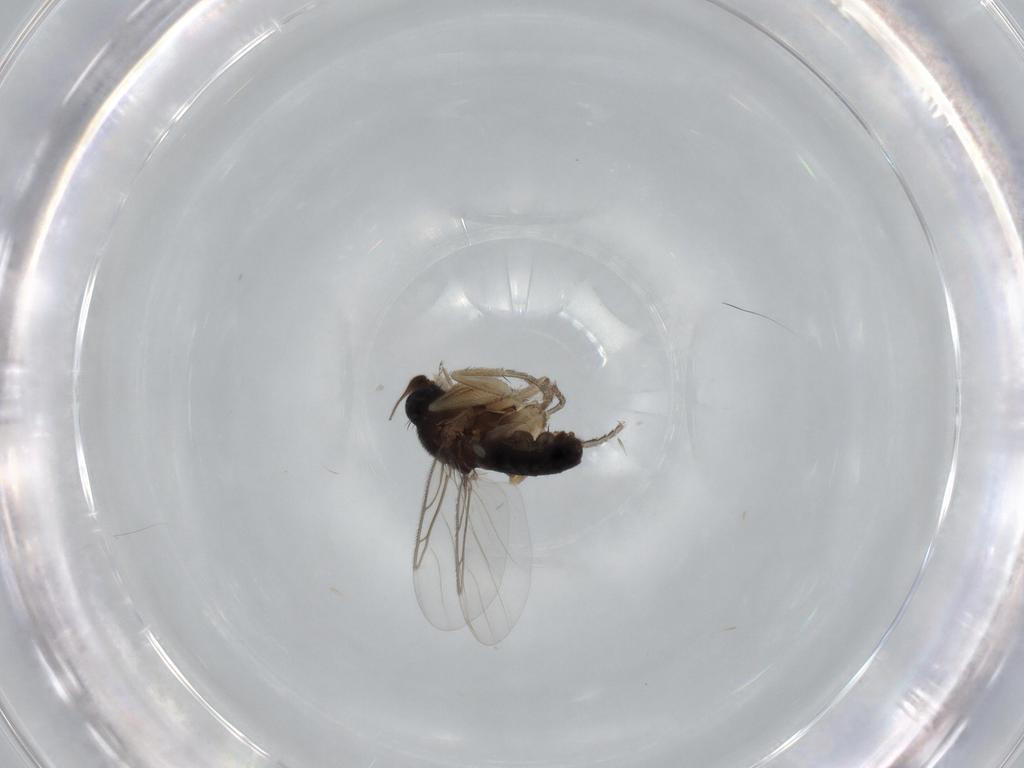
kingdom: Animalia
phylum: Arthropoda
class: Insecta
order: Diptera
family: Phoridae
